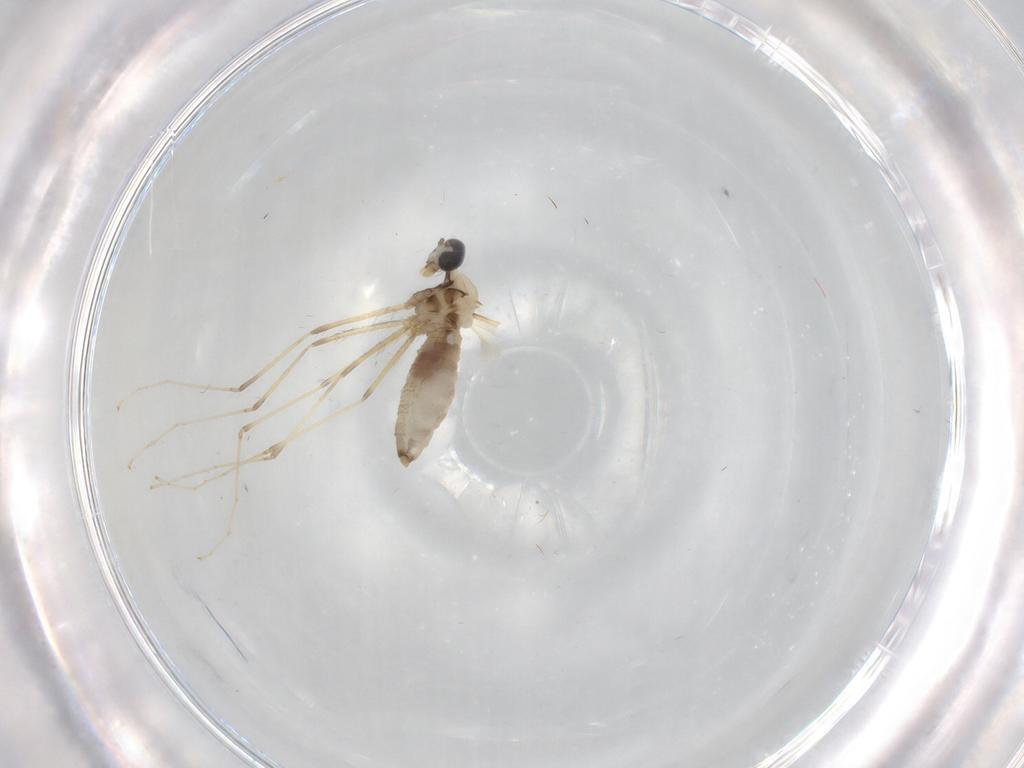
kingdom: Animalia
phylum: Arthropoda
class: Insecta
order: Diptera
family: Cecidomyiidae
